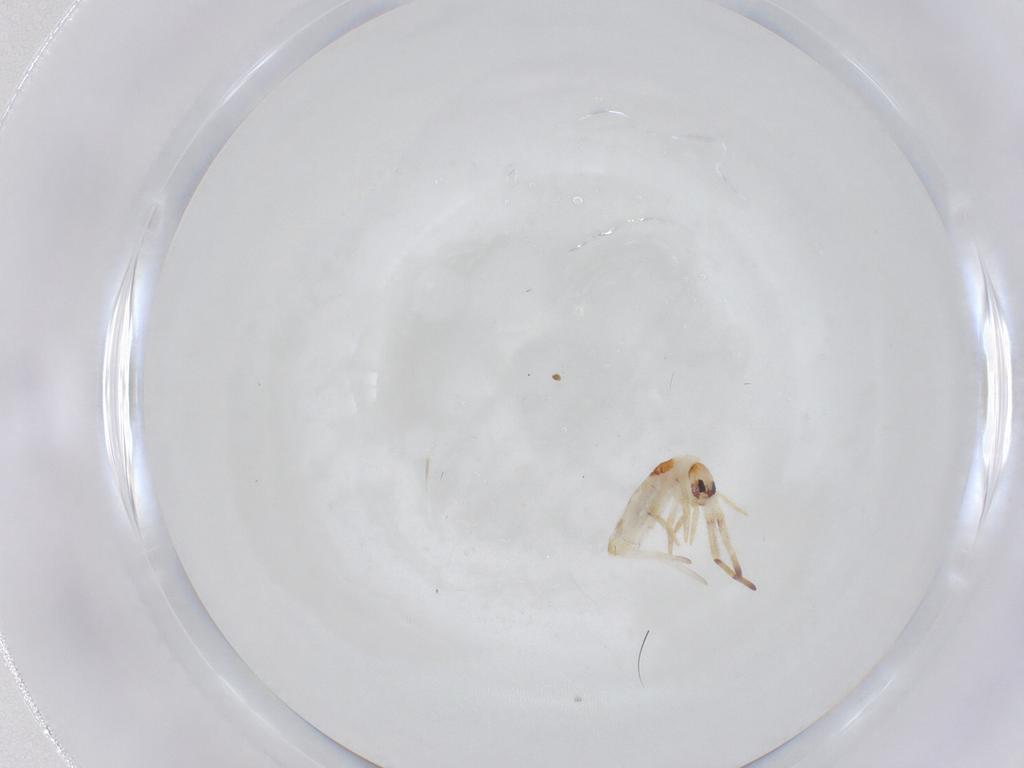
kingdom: Animalia
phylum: Arthropoda
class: Collembola
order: Entomobryomorpha
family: Entomobryidae
